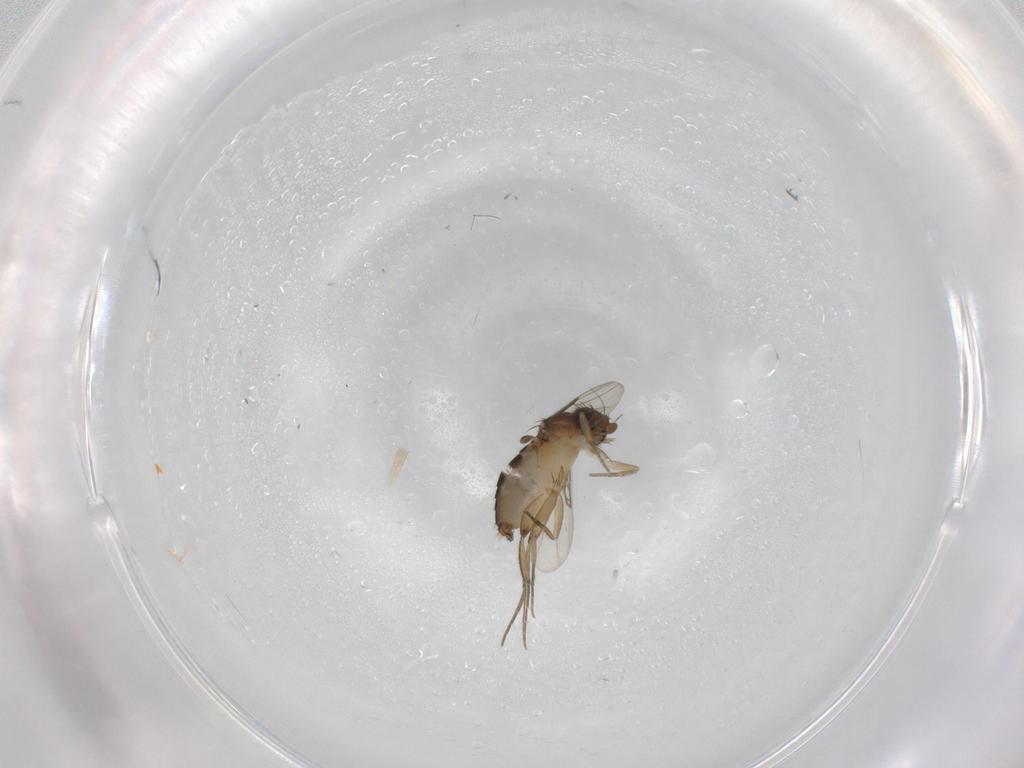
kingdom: Animalia
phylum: Arthropoda
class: Insecta
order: Diptera
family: Phoridae
